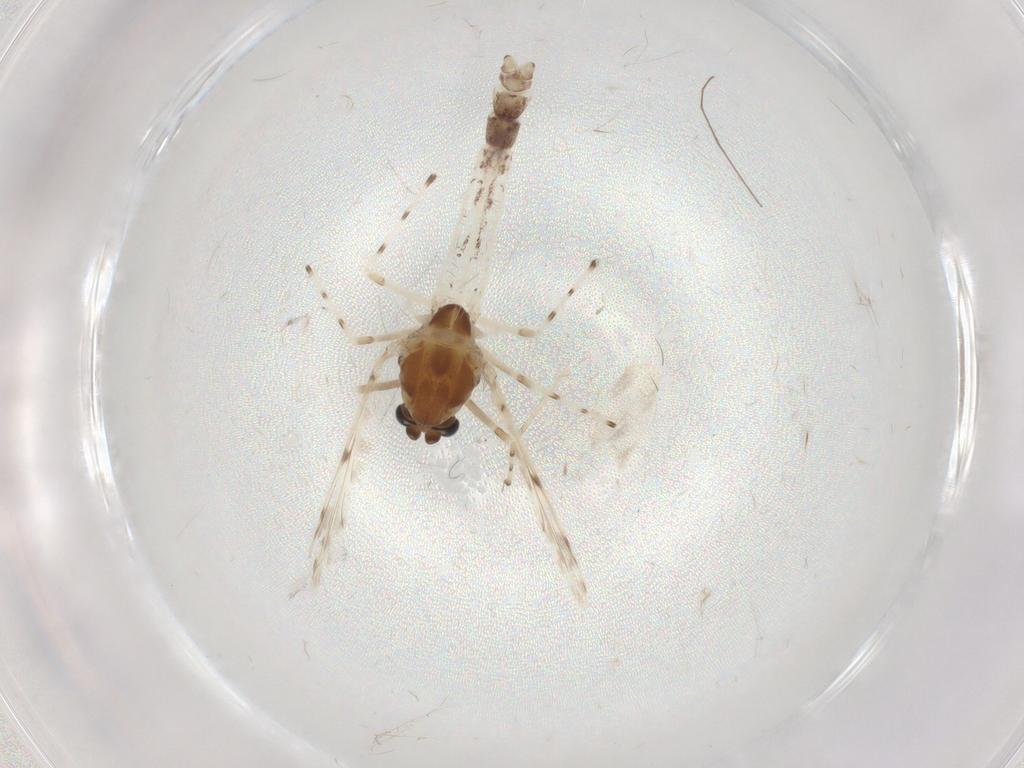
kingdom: Animalia
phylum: Arthropoda
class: Insecta
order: Diptera
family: Chironomidae
